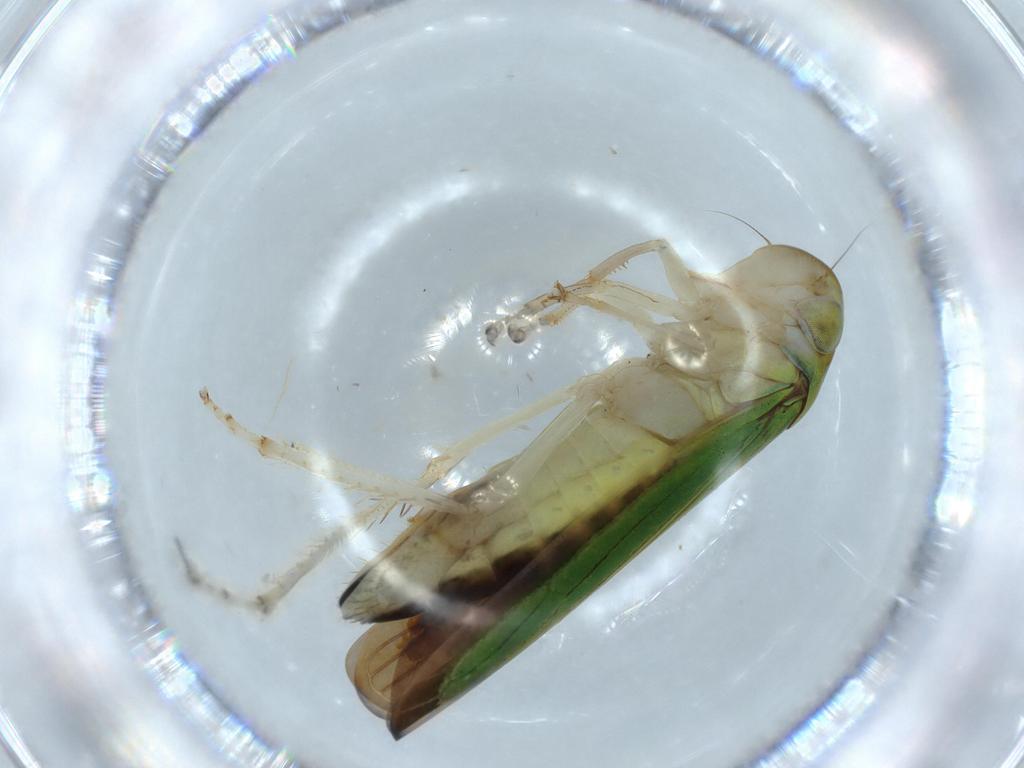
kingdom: Animalia
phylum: Arthropoda
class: Insecta
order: Hemiptera
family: Cicadellidae
